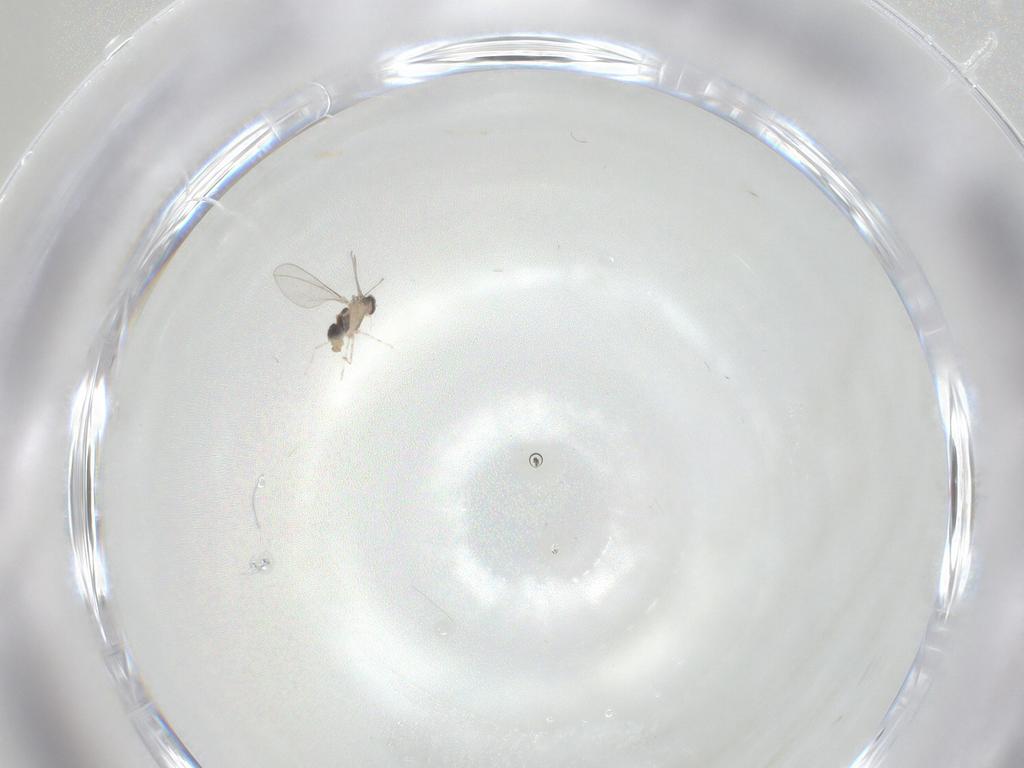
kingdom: Animalia
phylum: Arthropoda
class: Insecta
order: Diptera
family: Cecidomyiidae
